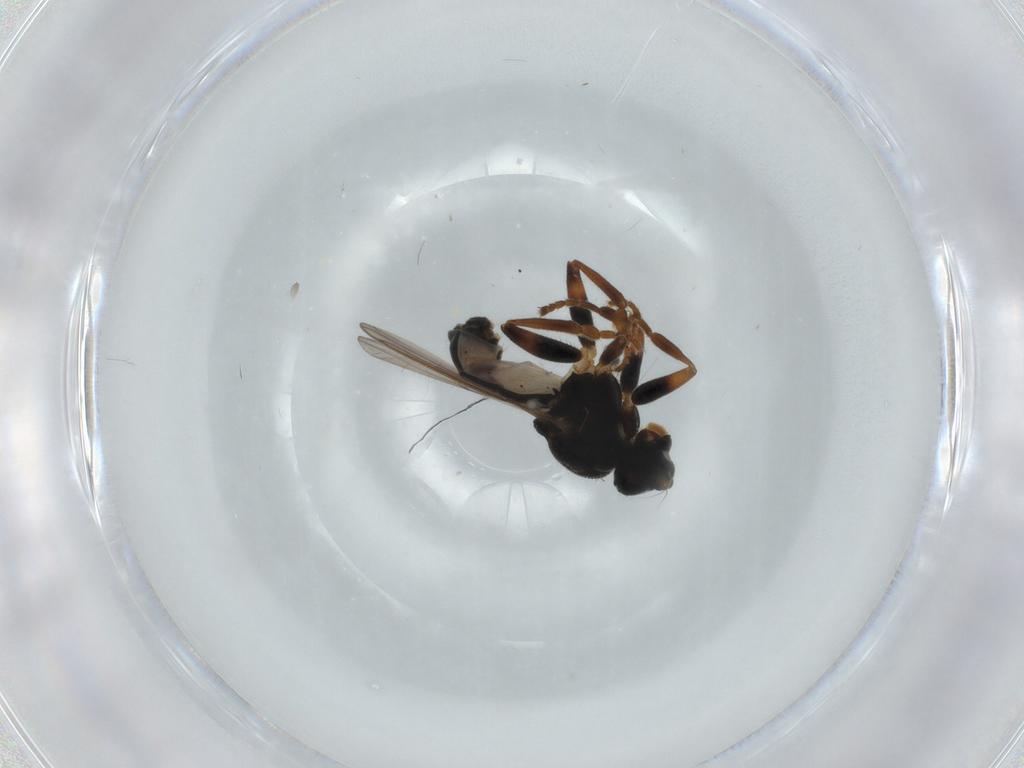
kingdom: Animalia
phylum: Arthropoda
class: Insecta
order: Diptera
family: Sphaeroceridae
